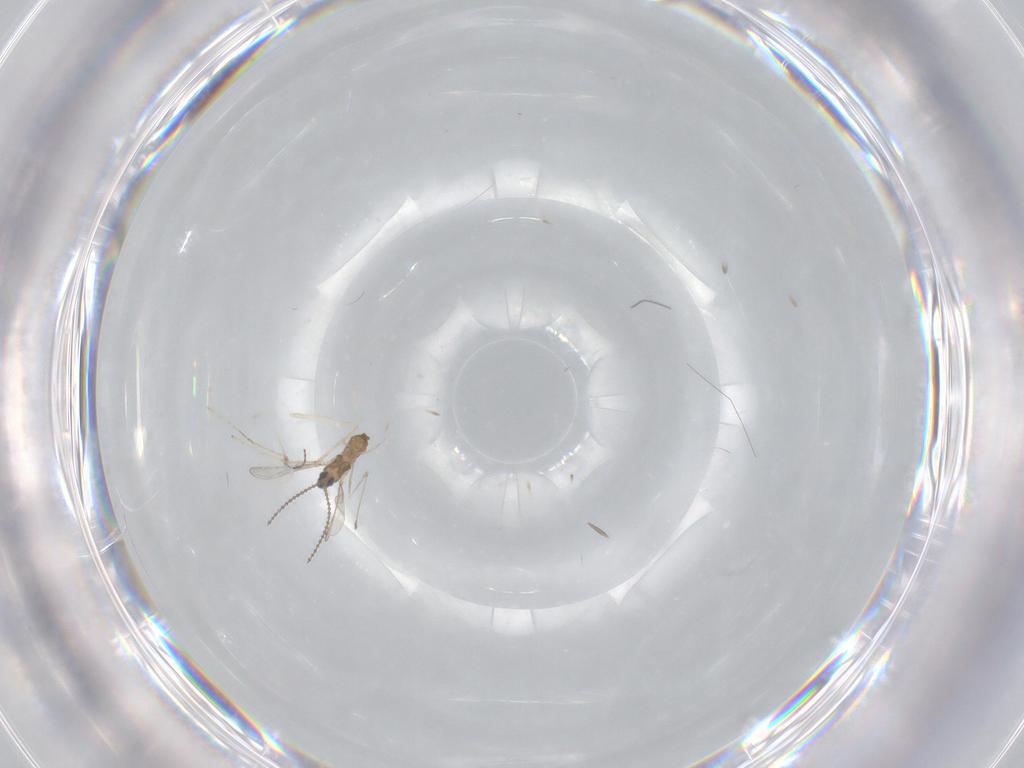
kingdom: Animalia
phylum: Arthropoda
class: Insecta
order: Diptera
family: Cecidomyiidae
